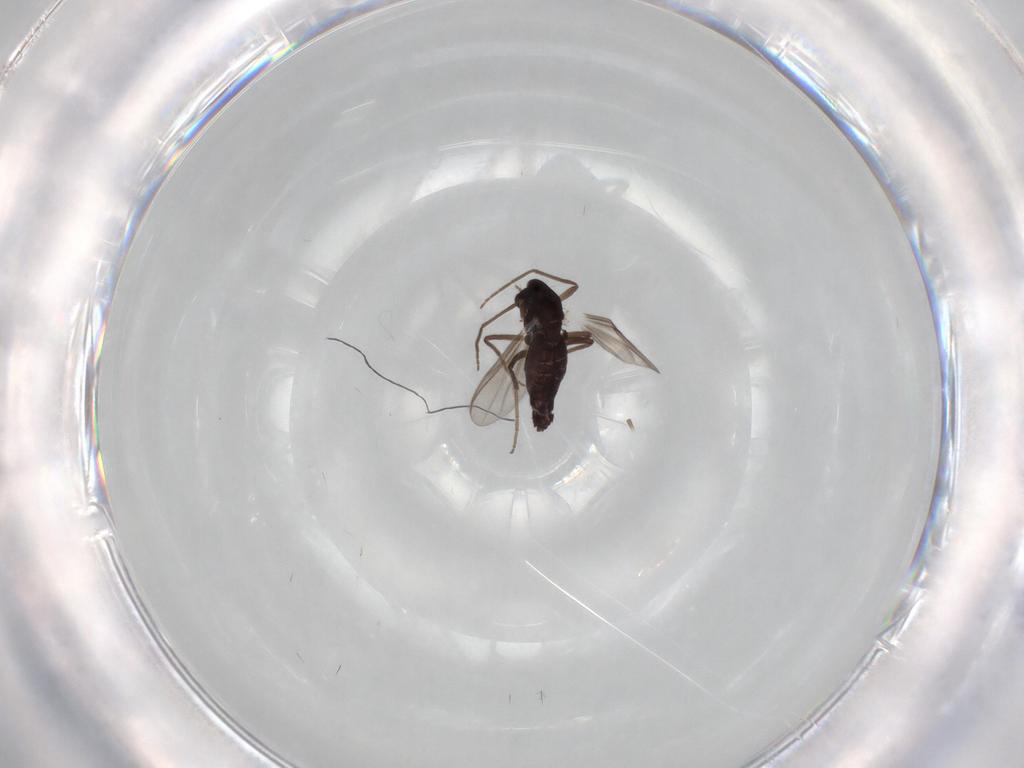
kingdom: Animalia
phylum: Arthropoda
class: Insecta
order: Diptera
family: Chironomidae
